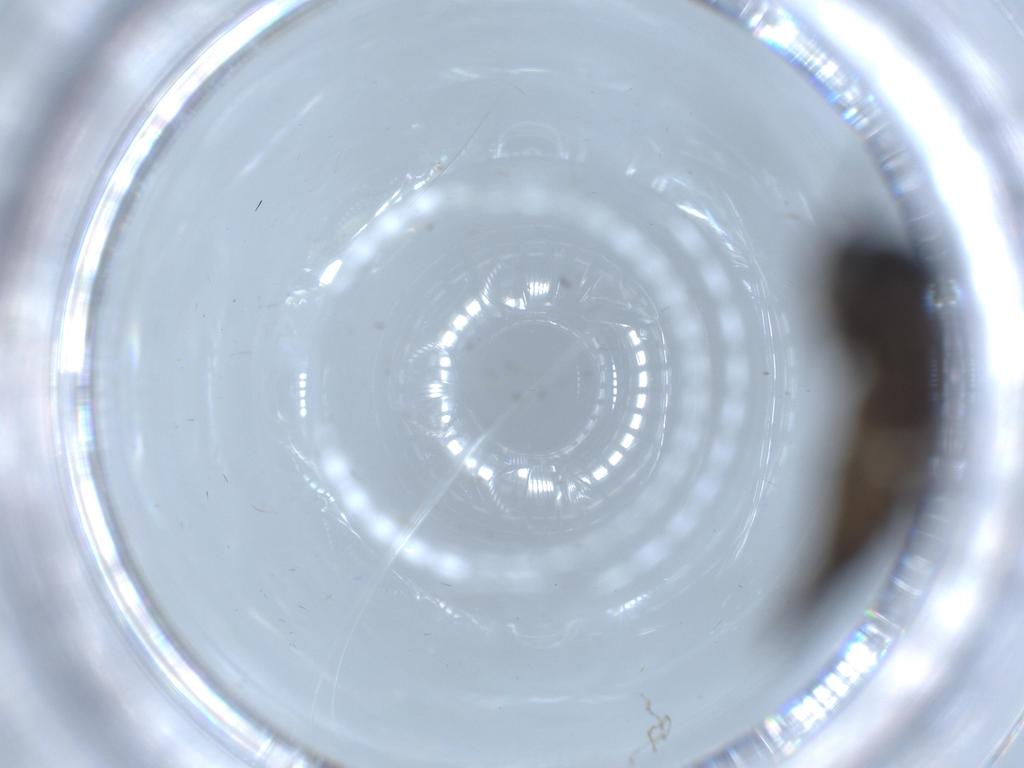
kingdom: Animalia
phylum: Arthropoda
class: Insecta
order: Diptera
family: Sciaridae
